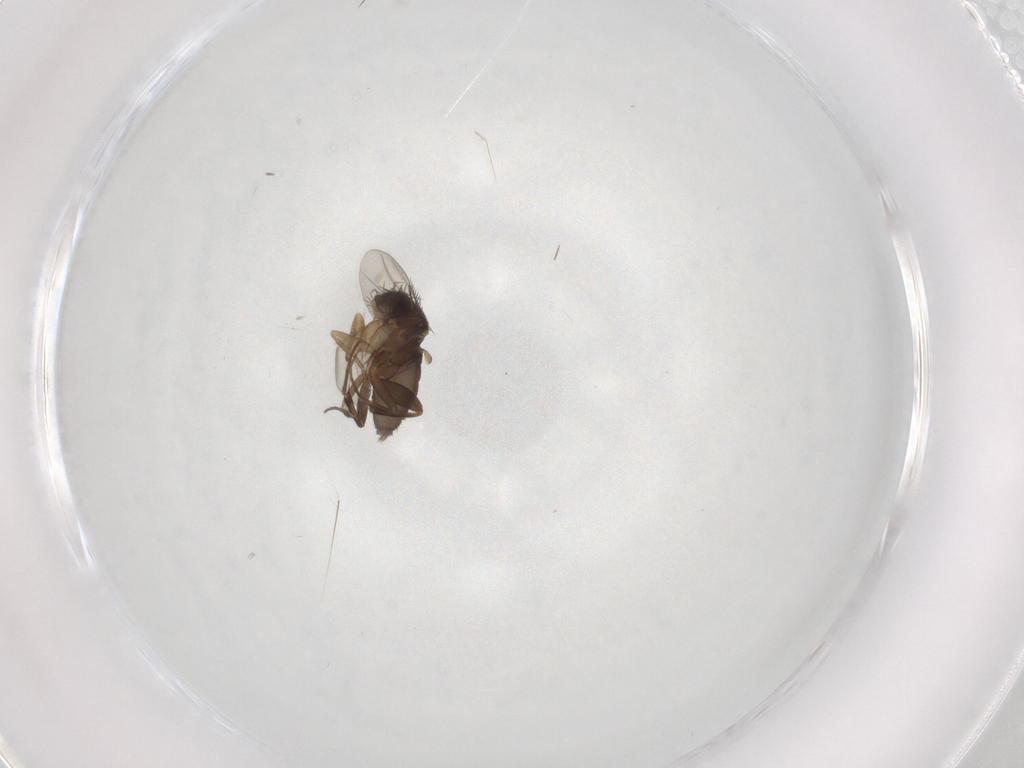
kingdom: Animalia
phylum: Arthropoda
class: Insecta
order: Diptera
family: Phoridae
